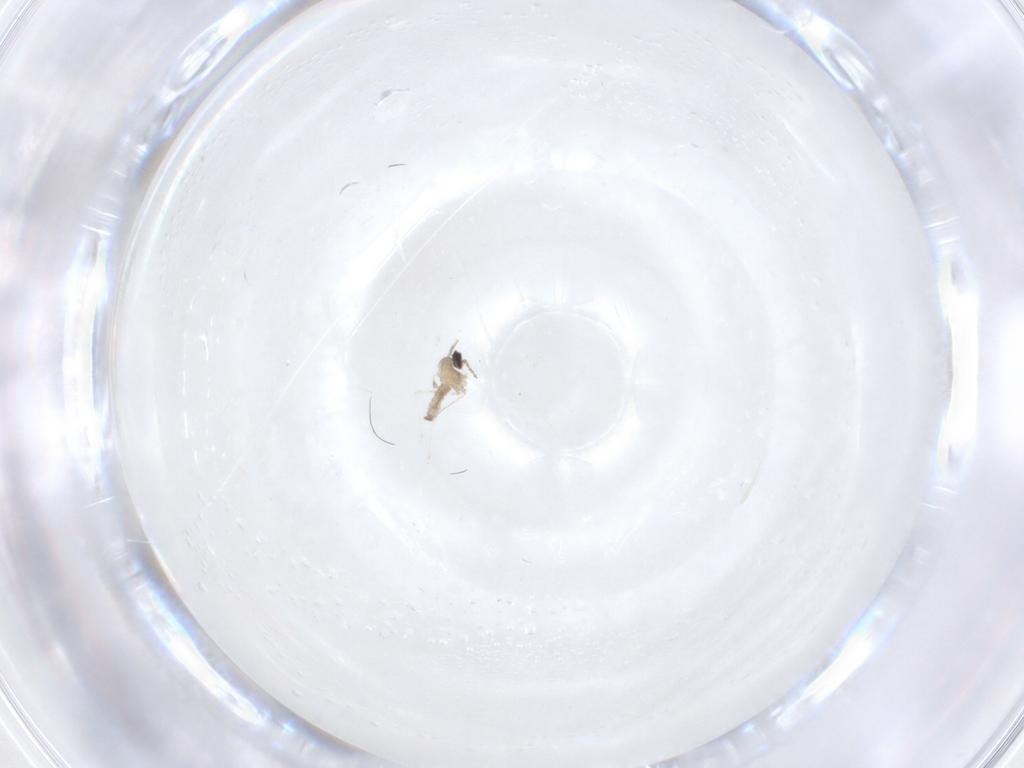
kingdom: Animalia
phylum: Arthropoda
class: Insecta
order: Diptera
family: Cecidomyiidae
